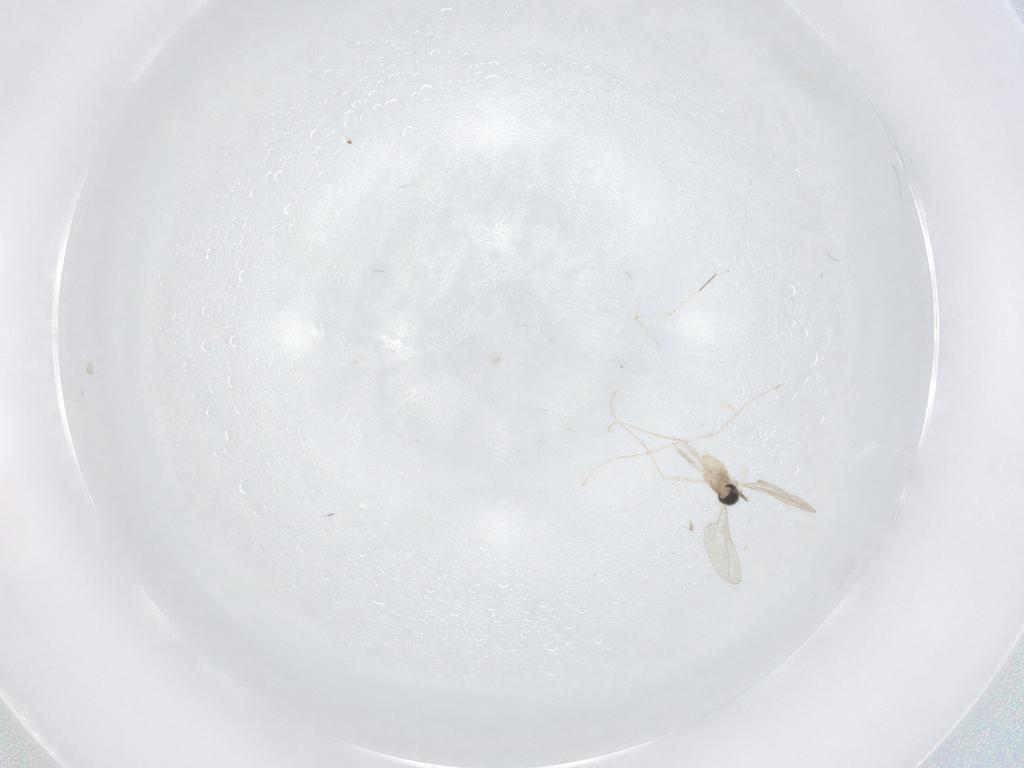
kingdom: Animalia
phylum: Arthropoda
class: Insecta
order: Diptera
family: Cecidomyiidae
